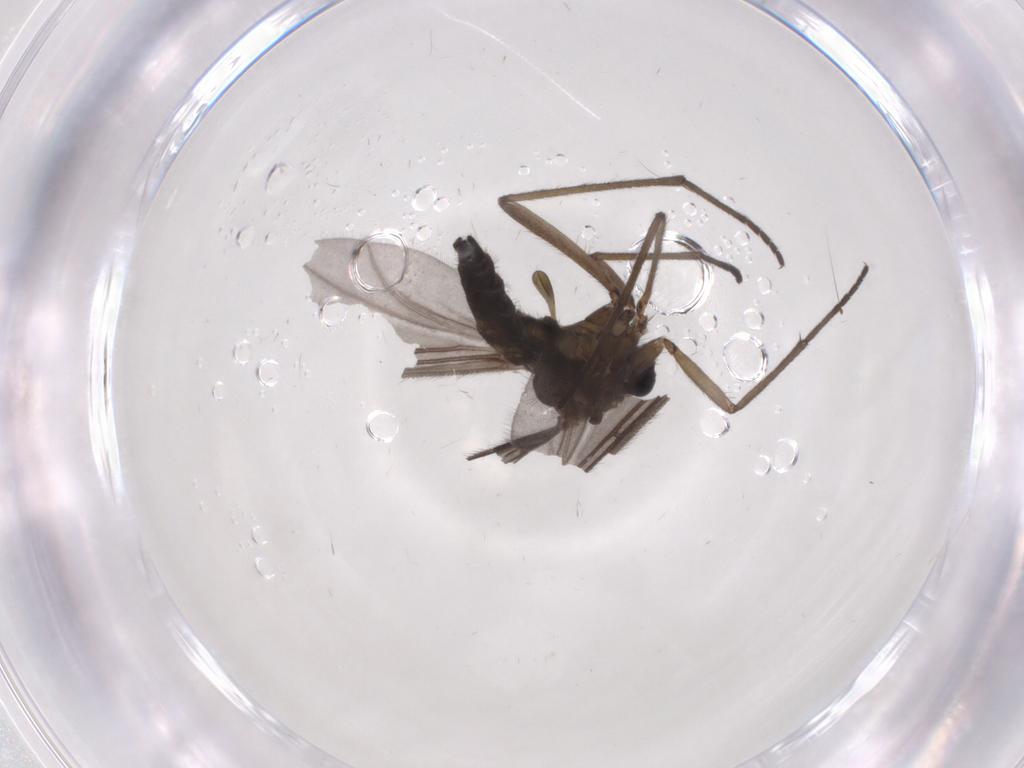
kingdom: Animalia
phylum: Arthropoda
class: Insecta
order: Diptera
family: Sciaridae
